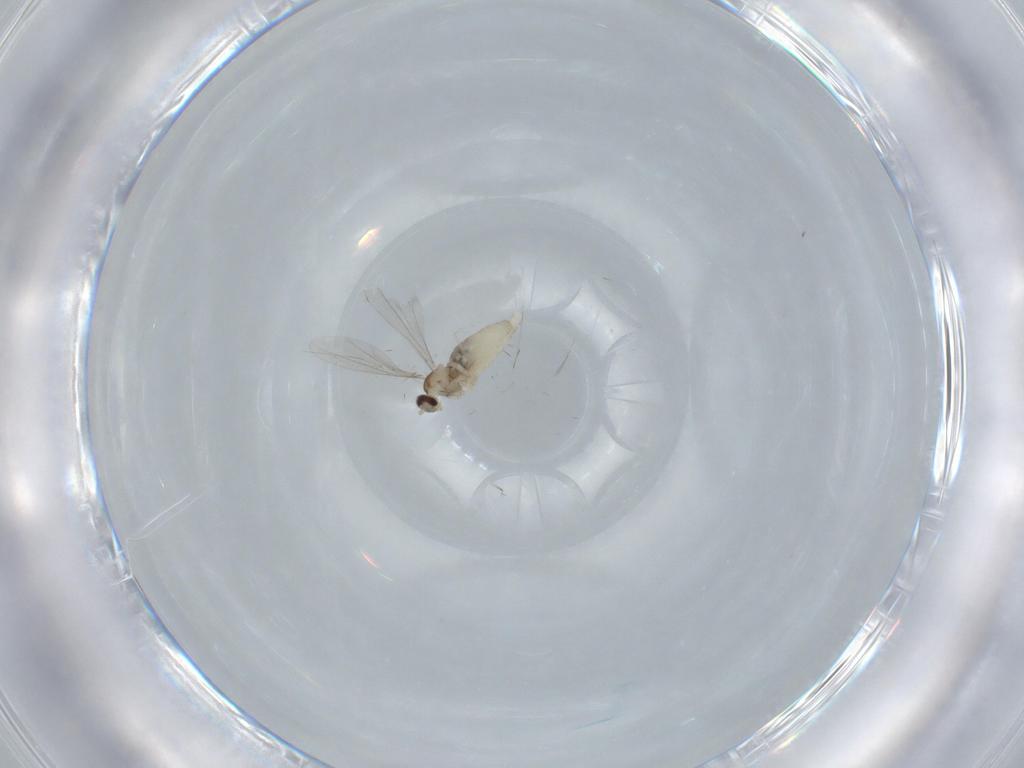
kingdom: Animalia
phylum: Arthropoda
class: Insecta
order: Diptera
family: Cecidomyiidae
